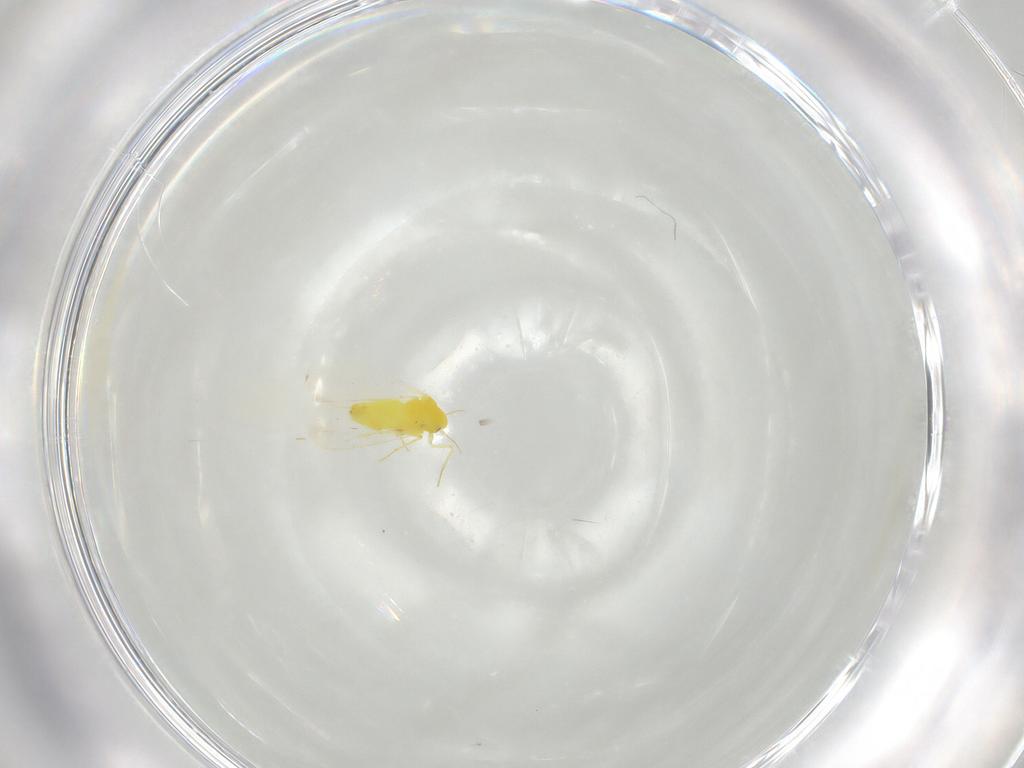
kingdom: Animalia
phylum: Arthropoda
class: Insecta
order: Hemiptera
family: Aleyrodidae
